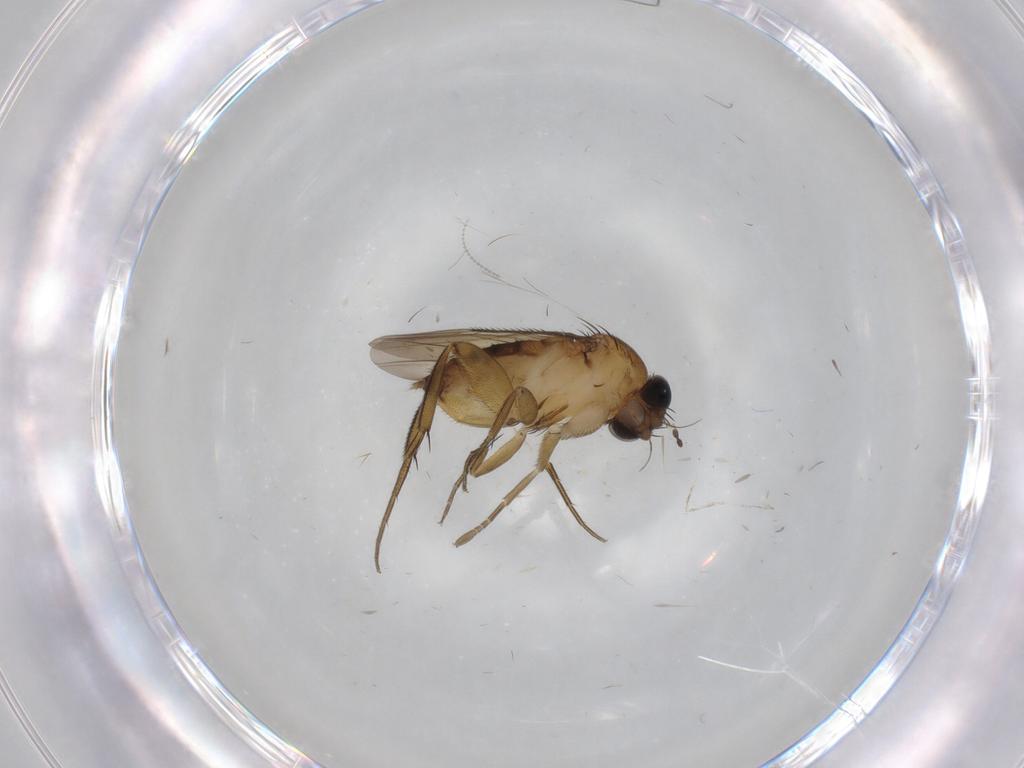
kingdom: Animalia
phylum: Arthropoda
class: Insecta
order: Diptera
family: Phoridae
